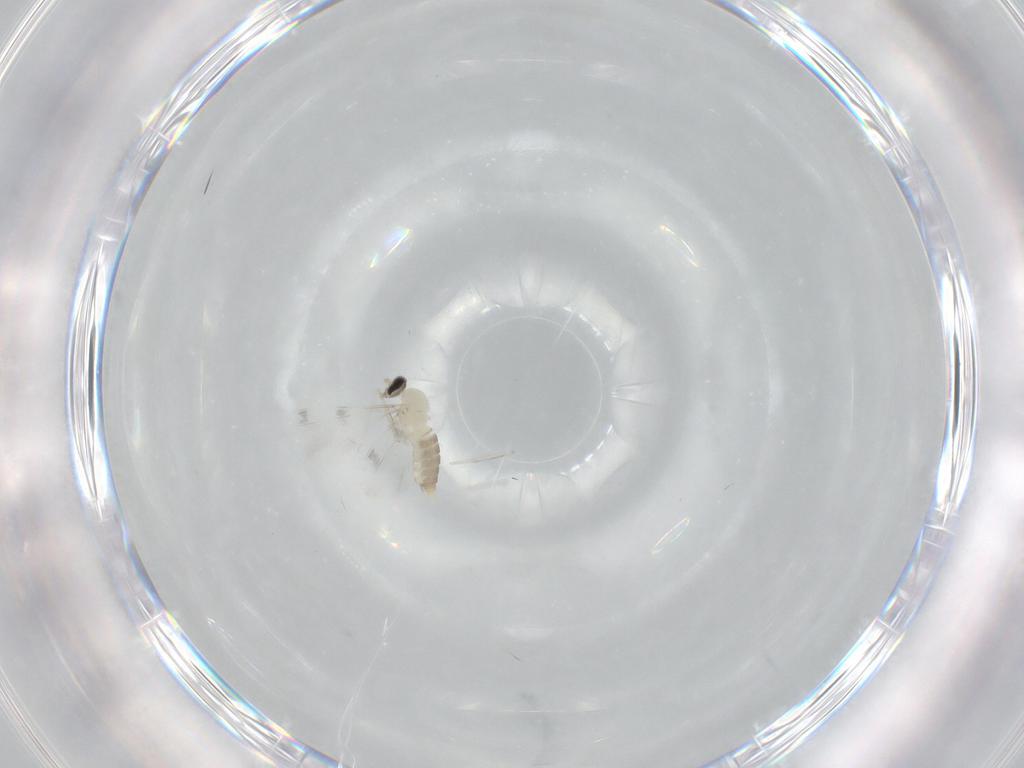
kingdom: Animalia
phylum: Arthropoda
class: Insecta
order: Diptera
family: Cecidomyiidae
